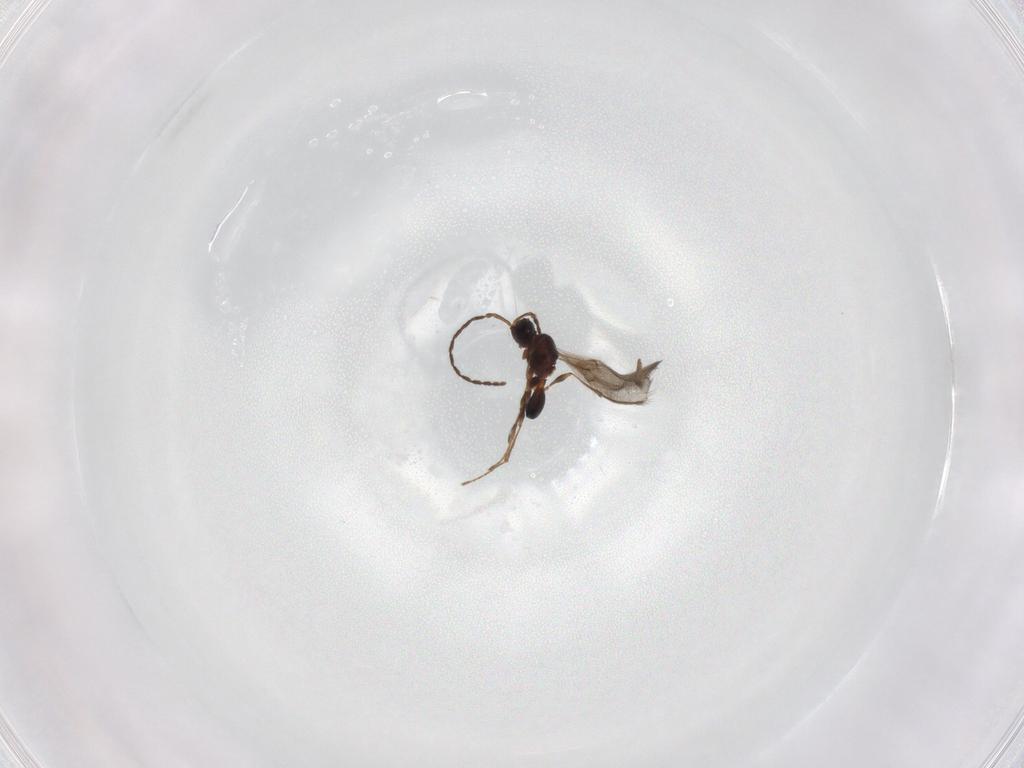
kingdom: Animalia
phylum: Arthropoda
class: Insecta
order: Hymenoptera
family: Diapriidae
